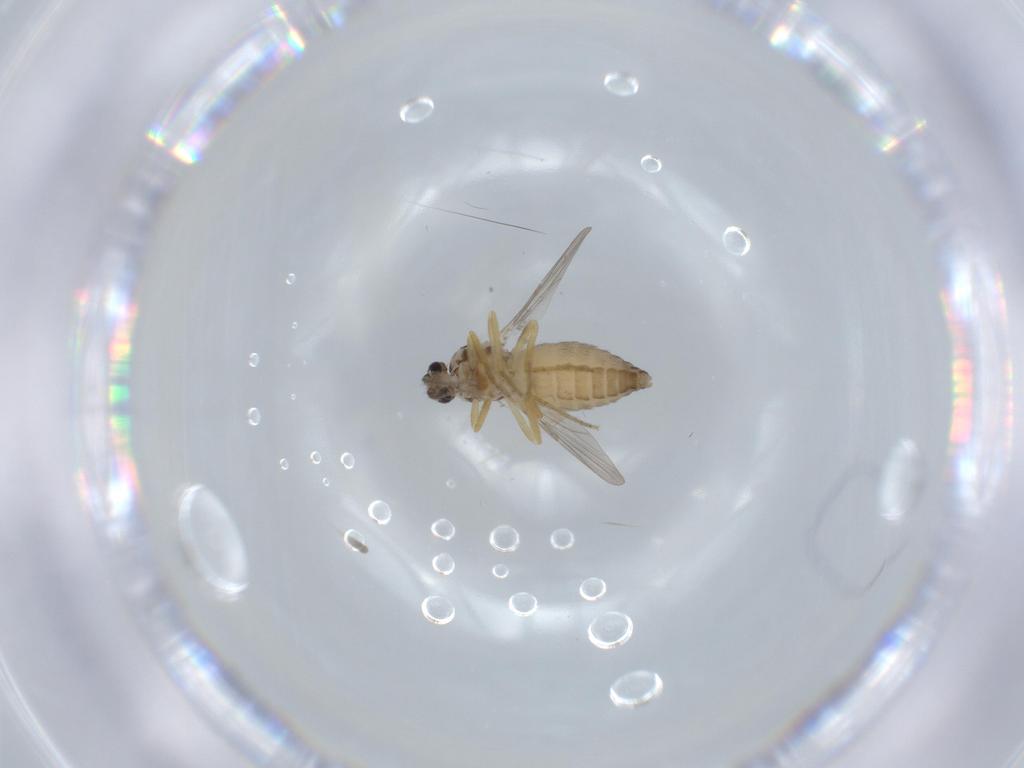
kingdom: Animalia
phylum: Arthropoda
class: Insecta
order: Diptera
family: Ceratopogonidae
